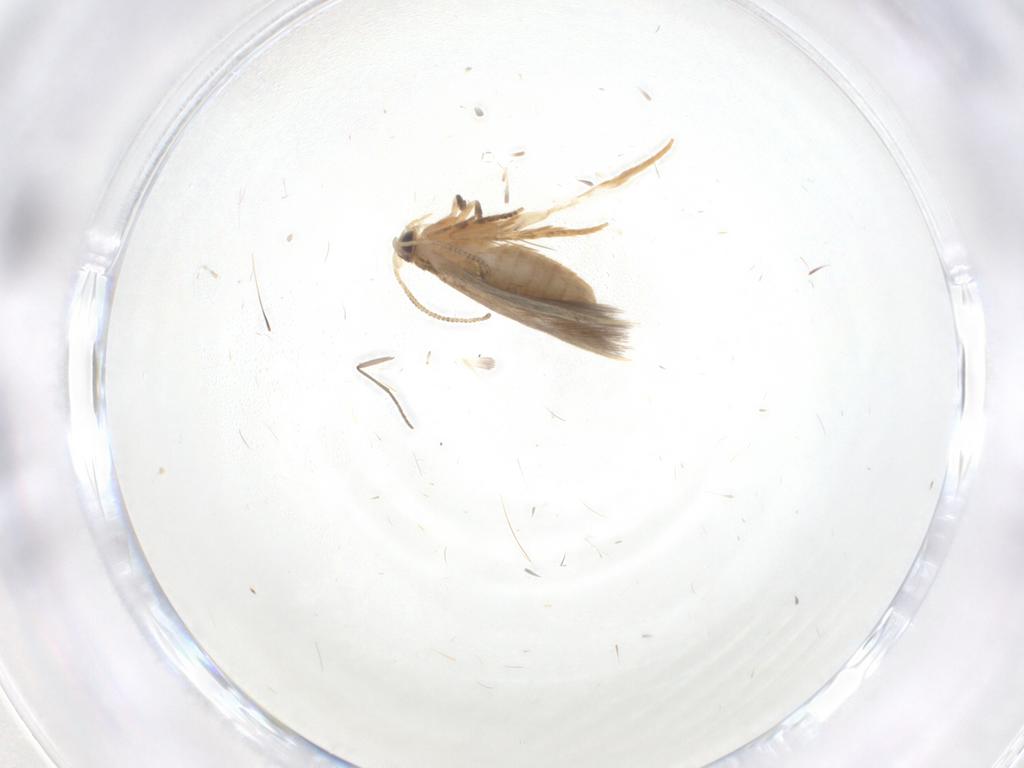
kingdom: Animalia
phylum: Arthropoda
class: Insecta
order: Lepidoptera
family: Nepticulidae
